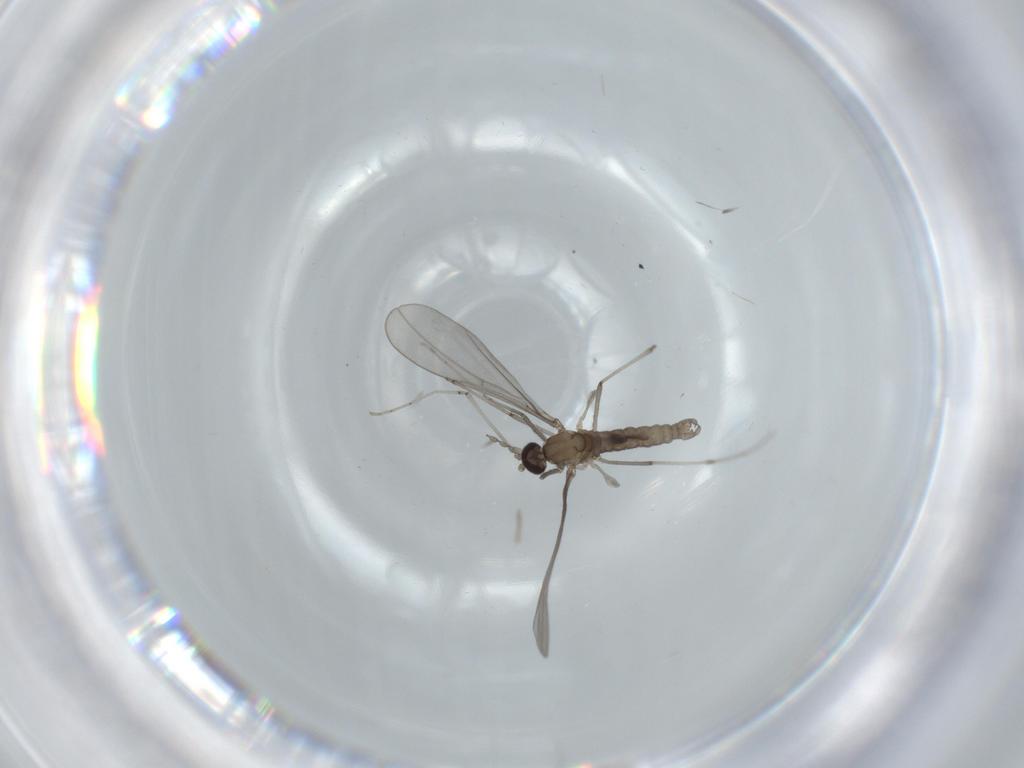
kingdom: Animalia
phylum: Arthropoda
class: Insecta
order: Diptera
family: Cecidomyiidae
